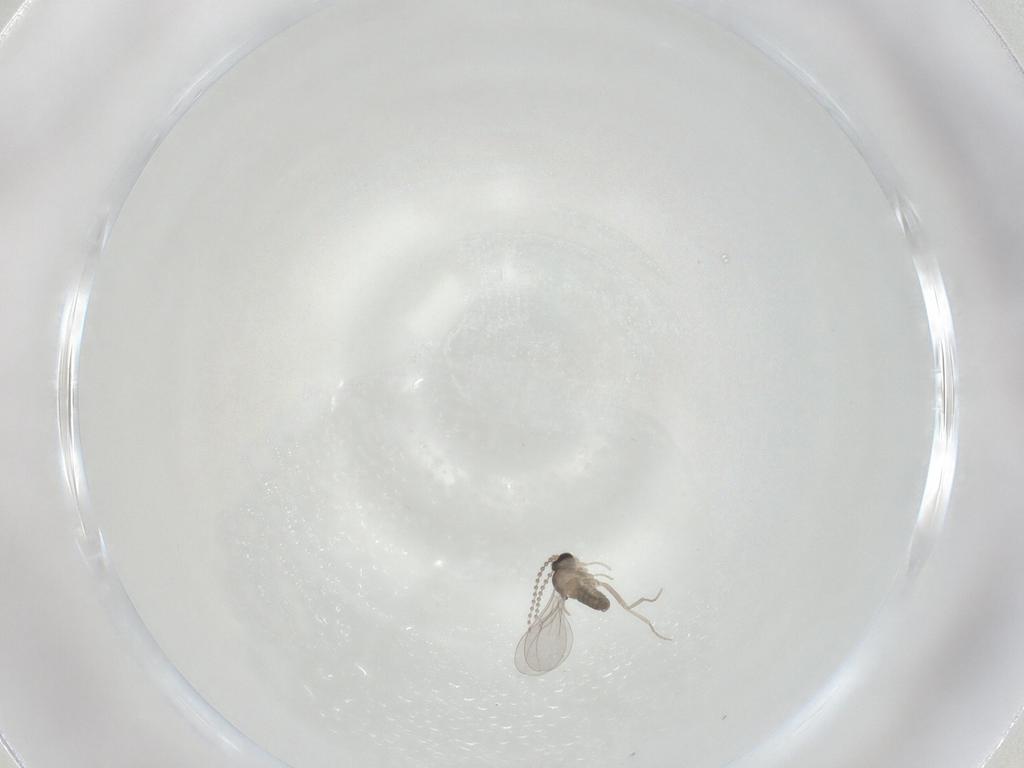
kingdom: Animalia
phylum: Arthropoda
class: Insecta
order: Diptera
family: Cecidomyiidae
